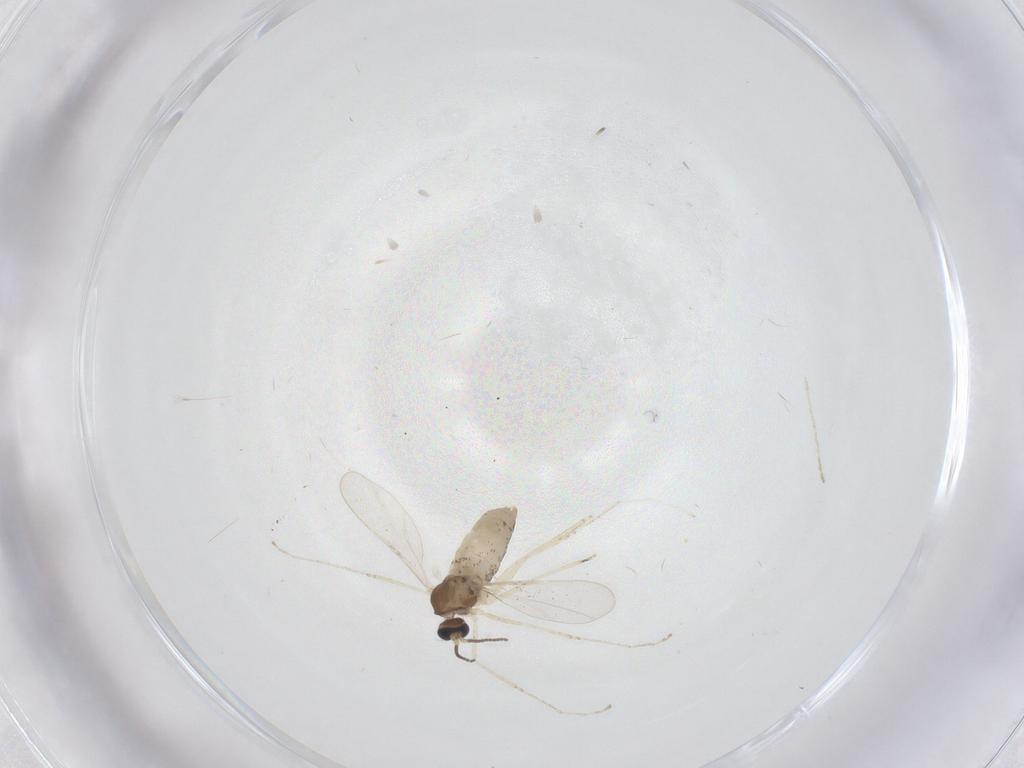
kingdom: Animalia
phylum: Arthropoda
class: Insecta
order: Diptera
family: Cecidomyiidae
